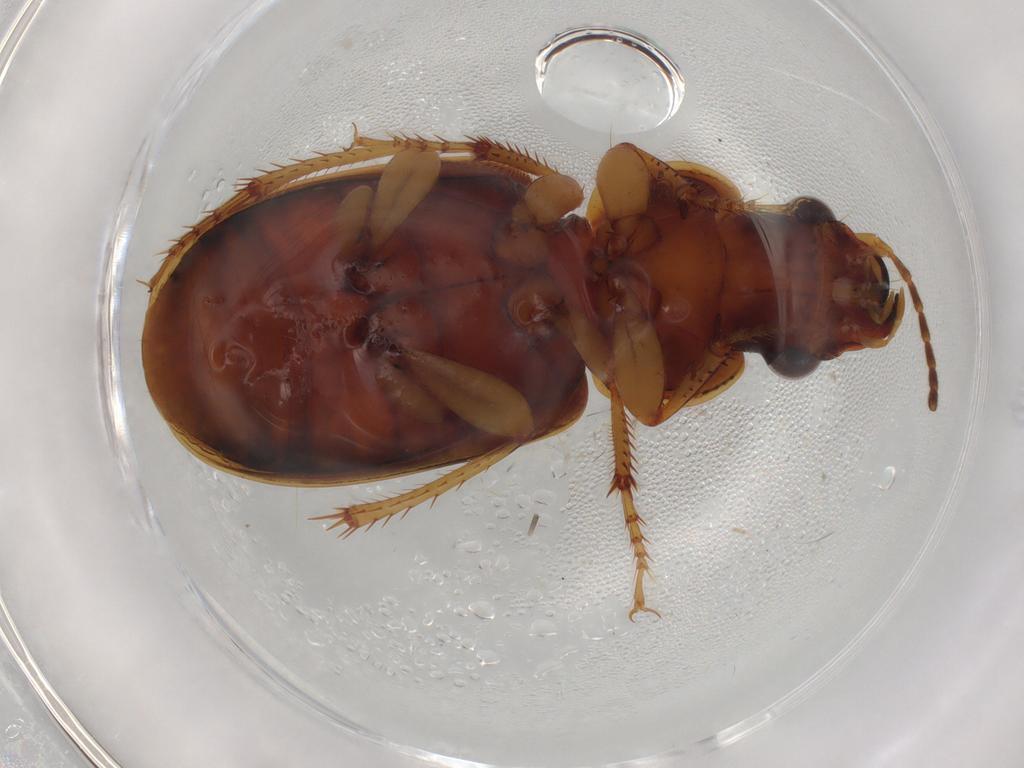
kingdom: Animalia
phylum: Arthropoda
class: Insecta
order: Coleoptera
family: Carabidae
